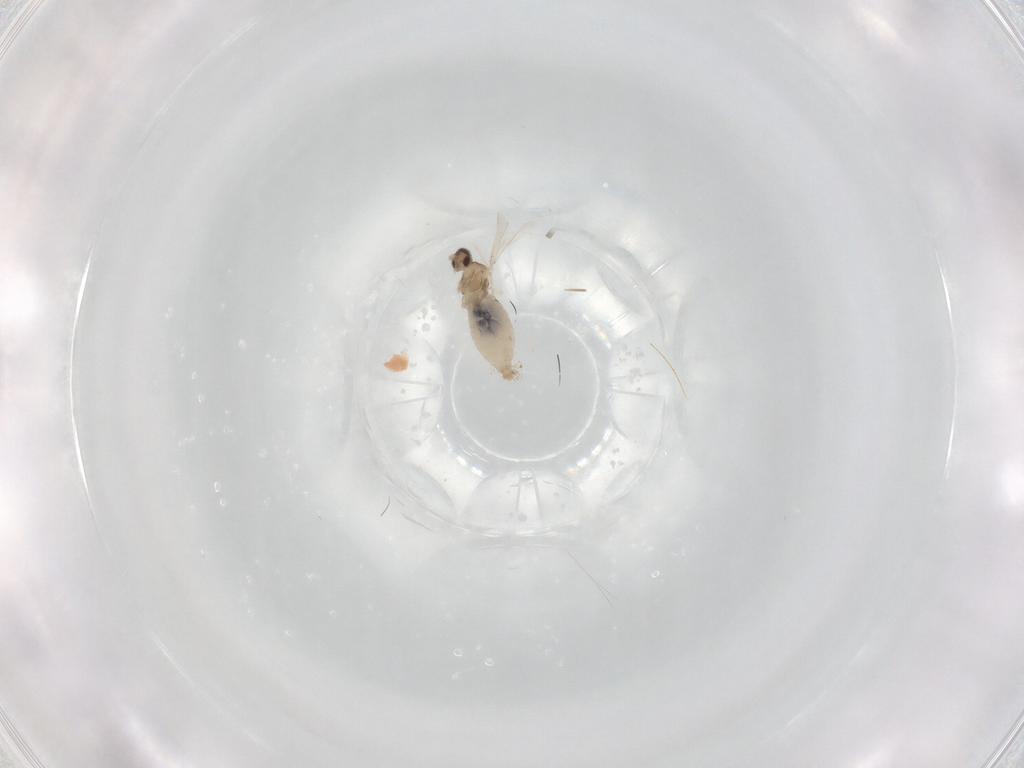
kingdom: Animalia
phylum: Arthropoda
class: Insecta
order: Diptera
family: Cecidomyiidae
